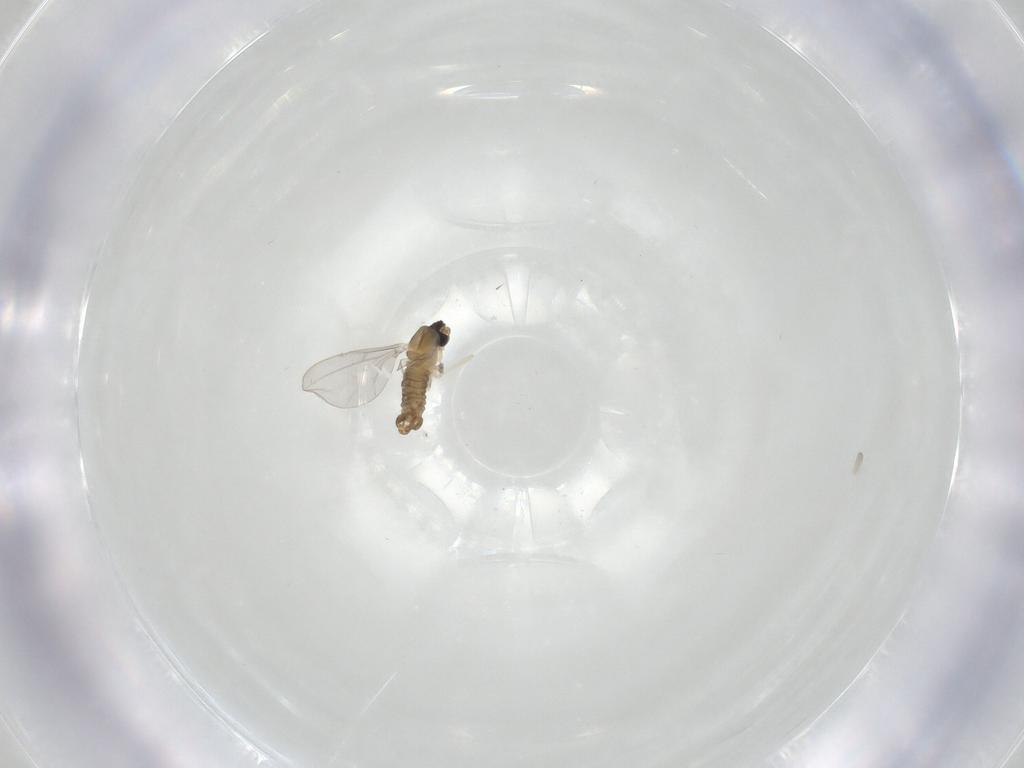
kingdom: Animalia
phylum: Arthropoda
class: Insecta
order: Diptera
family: Cecidomyiidae
